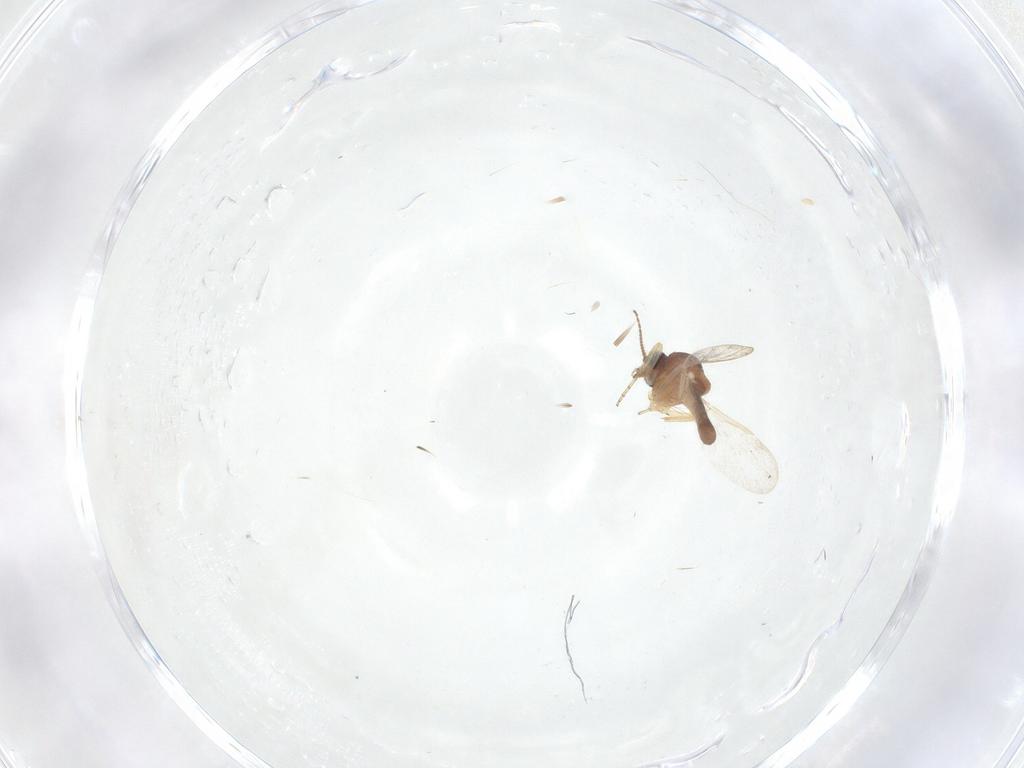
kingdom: Animalia
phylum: Arthropoda
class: Insecta
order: Diptera
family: Ceratopogonidae
